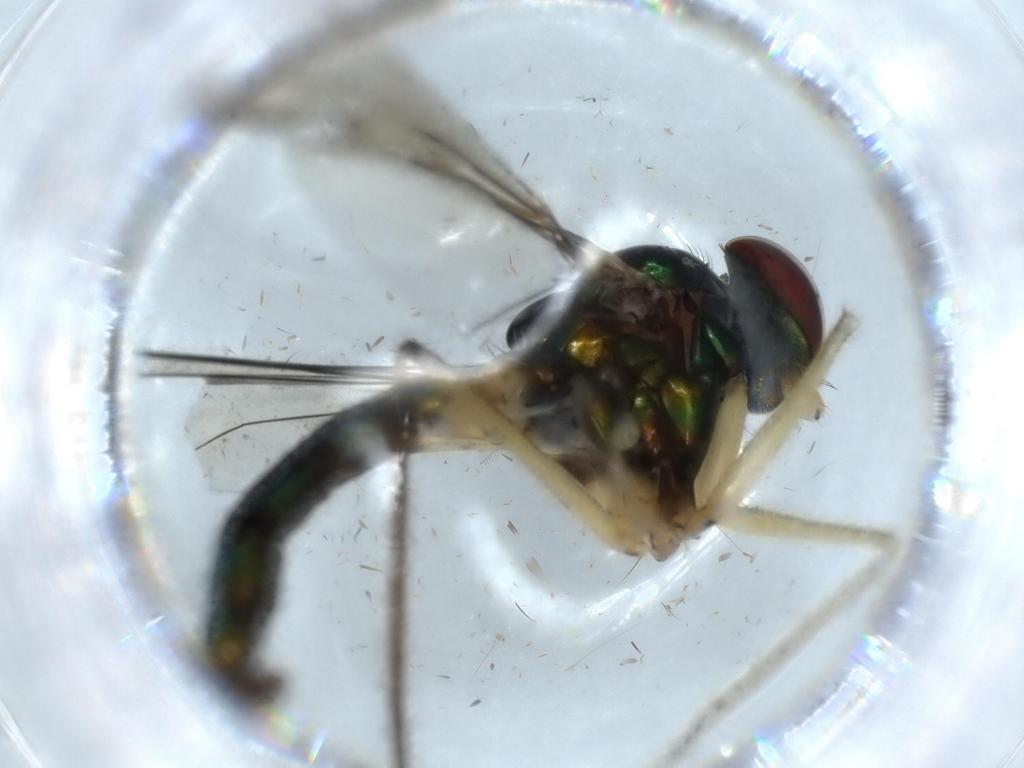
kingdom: Animalia
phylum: Arthropoda
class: Insecta
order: Diptera
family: Dolichopodidae
